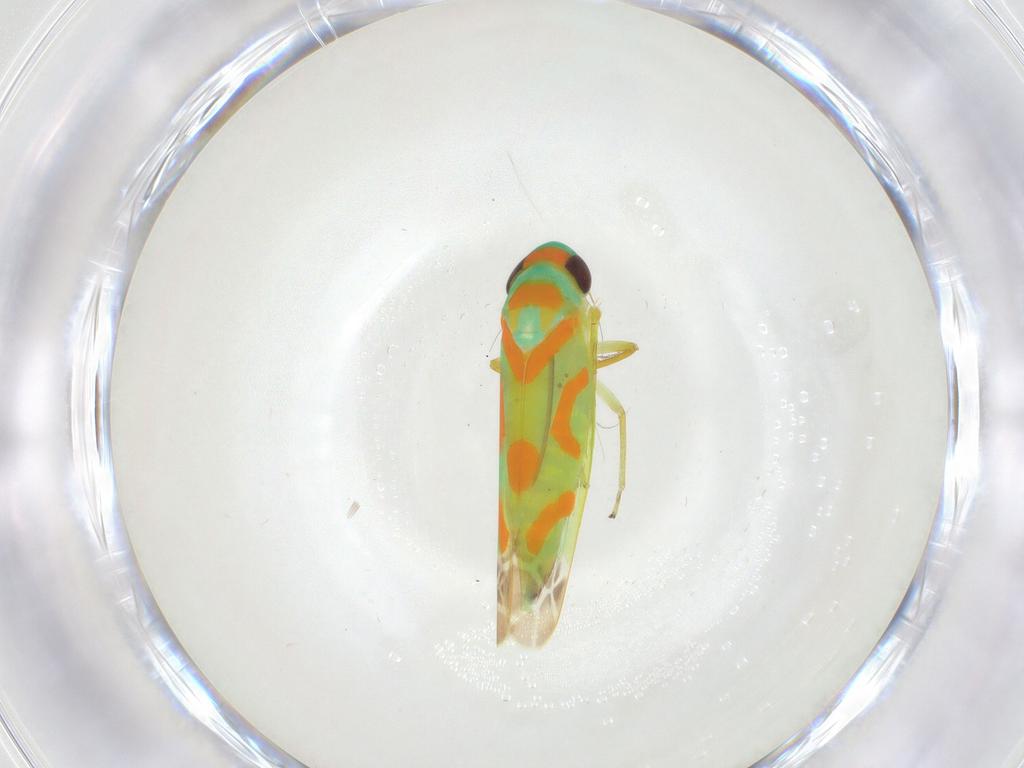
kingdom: Animalia
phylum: Arthropoda
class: Insecta
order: Hemiptera
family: Cicadellidae
